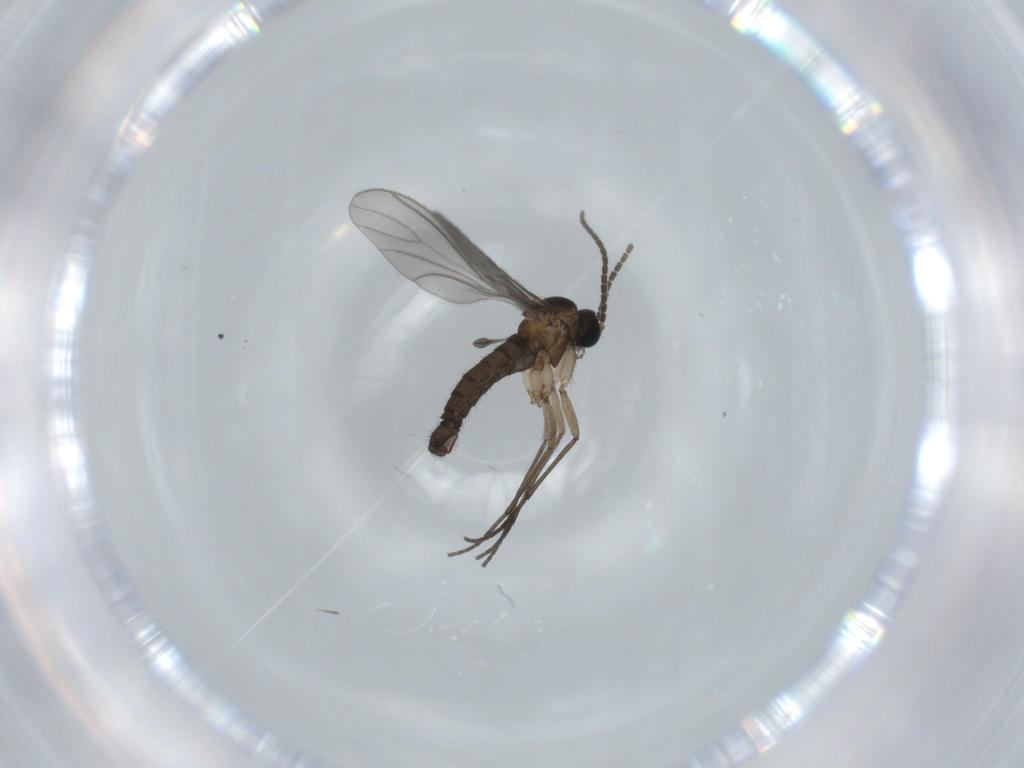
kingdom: Animalia
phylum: Arthropoda
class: Insecta
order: Diptera
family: Sciaridae
